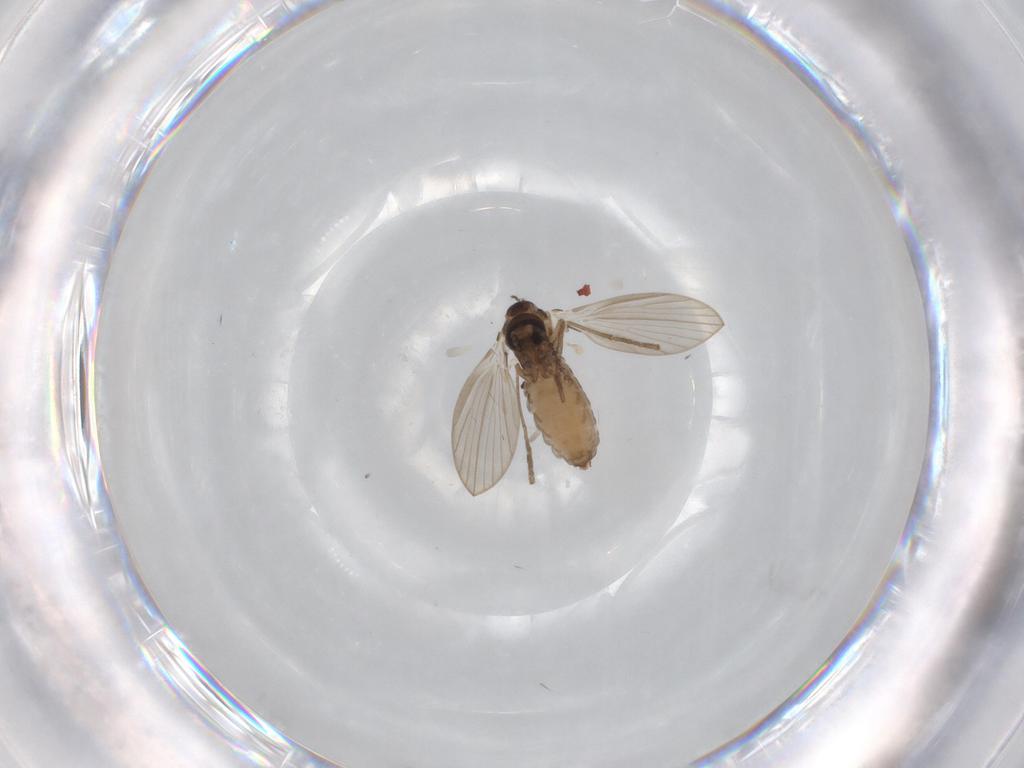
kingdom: Animalia
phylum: Arthropoda
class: Insecta
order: Diptera
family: Psychodidae
